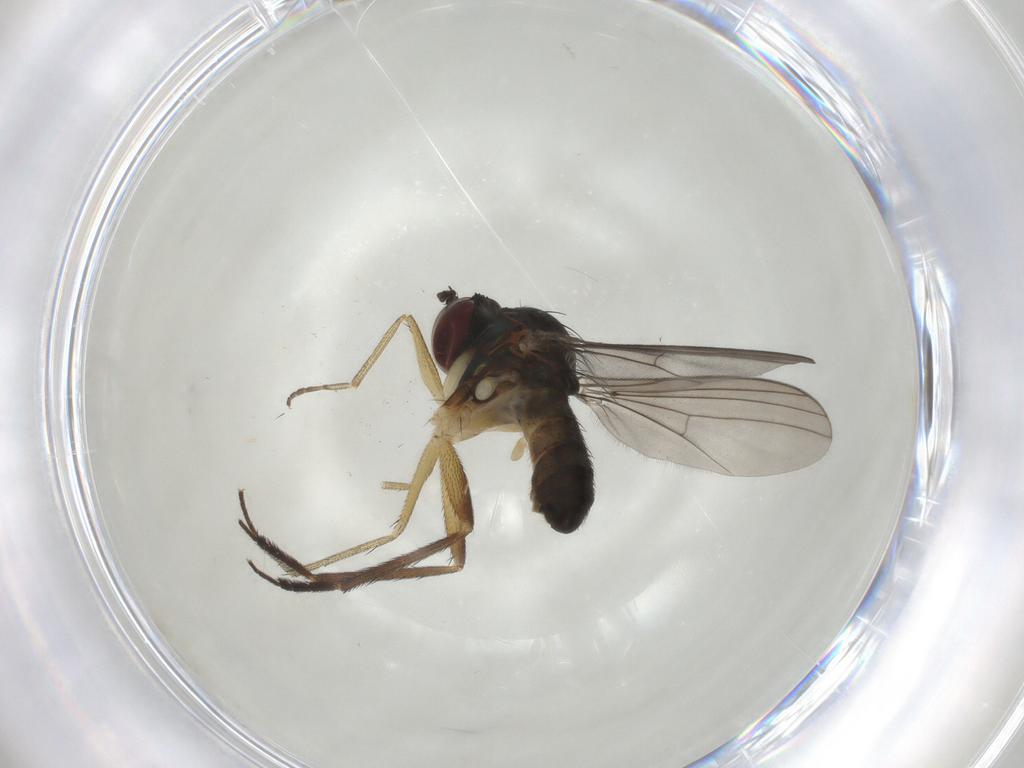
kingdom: Animalia
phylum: Arthropoda
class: Insecta
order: Diptera
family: Dolichopodidae
